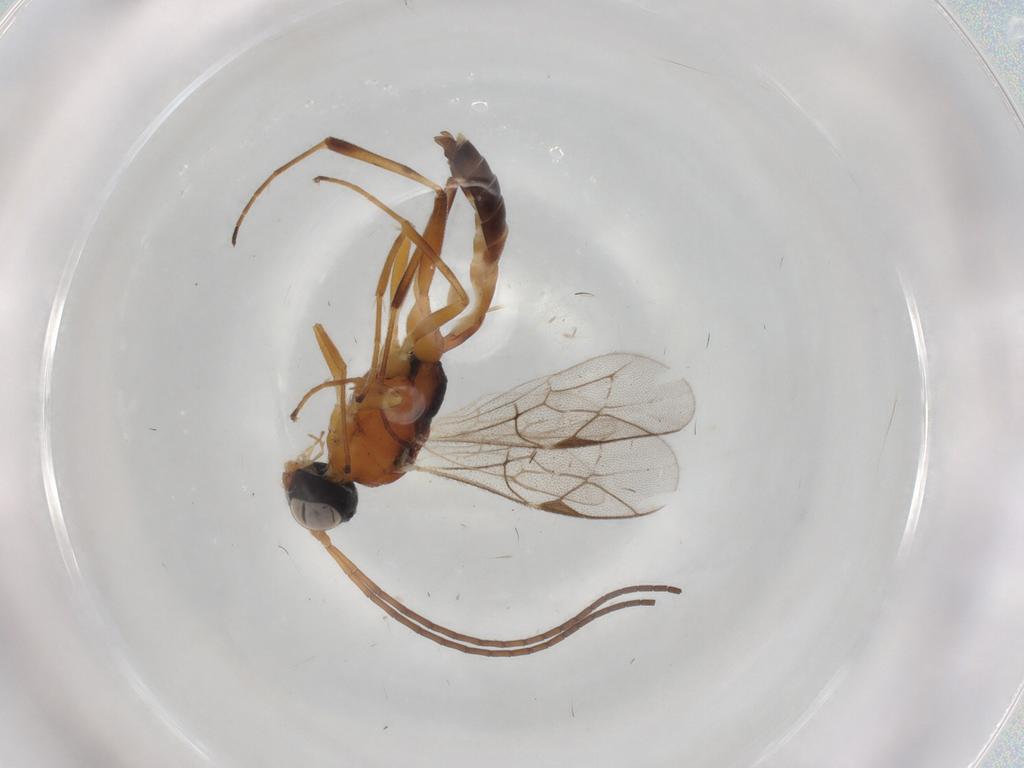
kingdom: Animalia
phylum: Arthropoda
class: Insecta
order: Hymenoptera
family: Ichneumonidae
